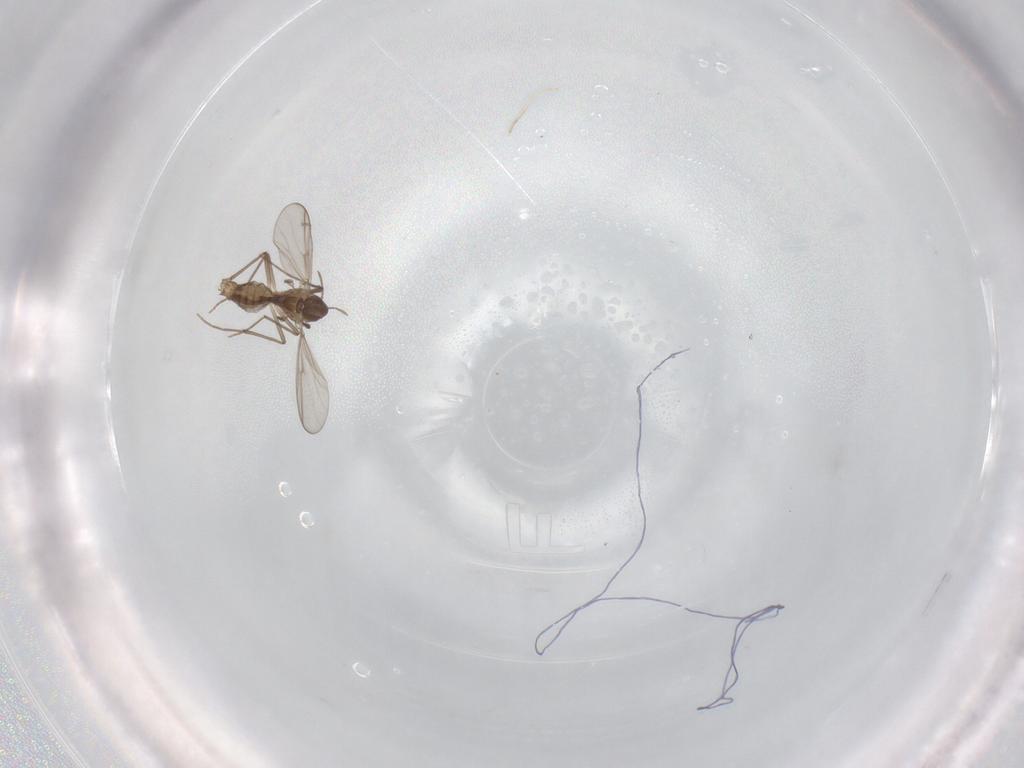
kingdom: Animalia
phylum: Arthropoda
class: Insecta
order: Diptera
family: Chironomidae
